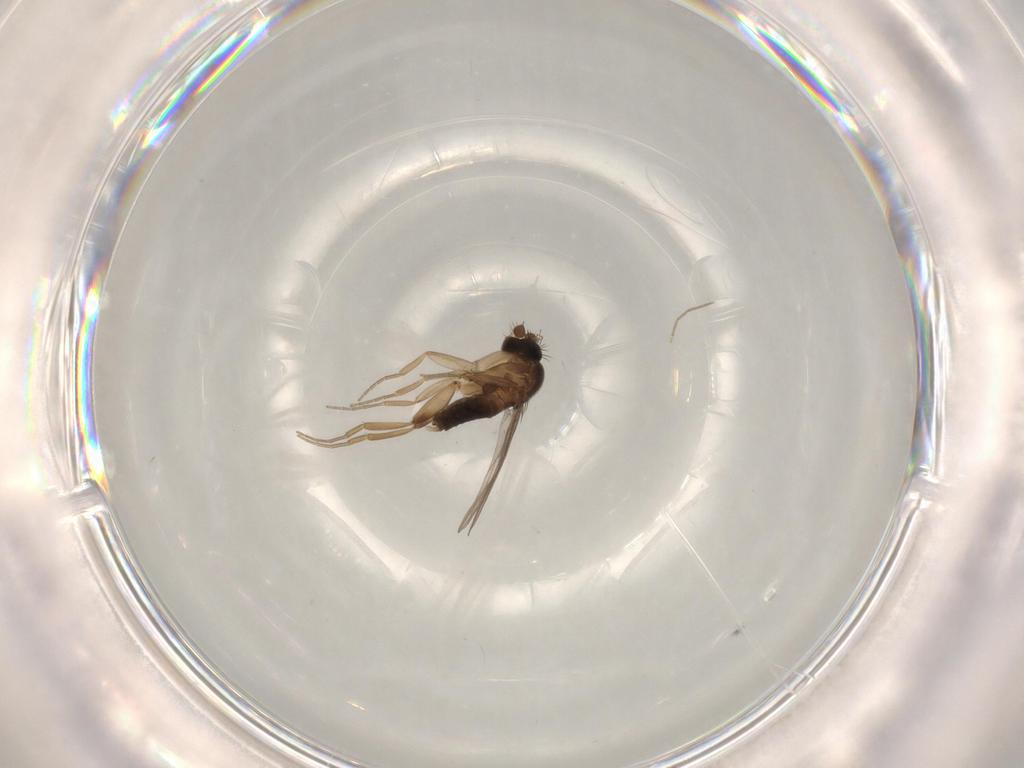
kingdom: Animalia
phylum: Arthropoda
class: Insecta
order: Diptera
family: Phoridae
